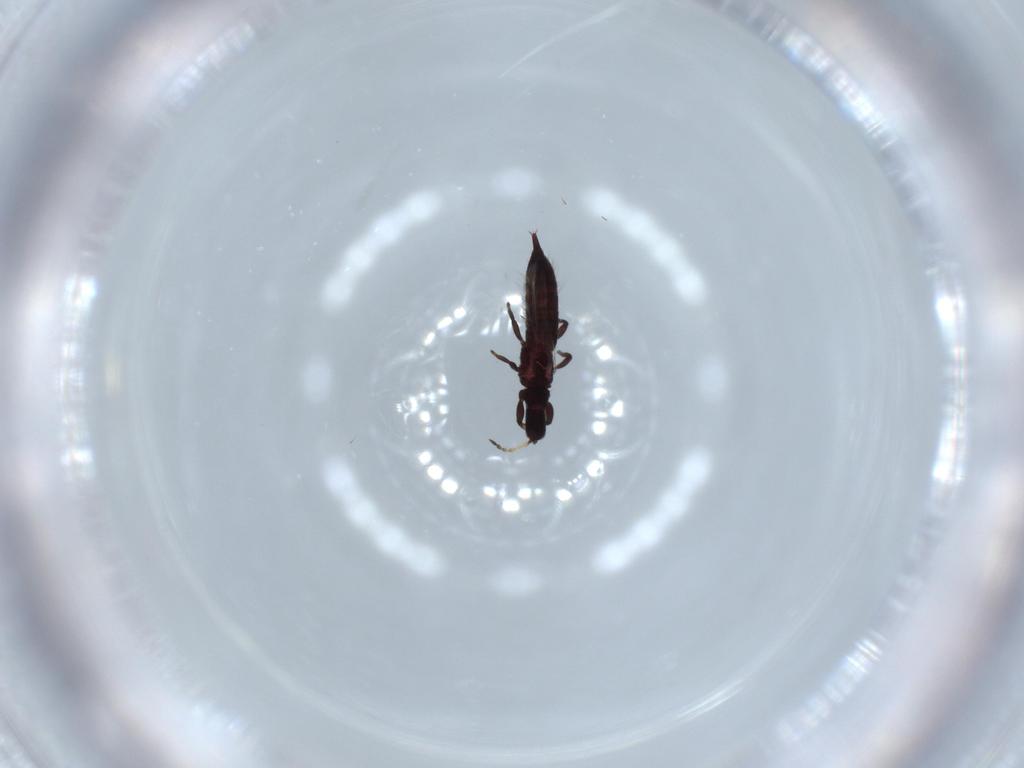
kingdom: Animalia
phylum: Arthropoda
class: Insecta
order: Thysanoptera
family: Phlaeothripidae
